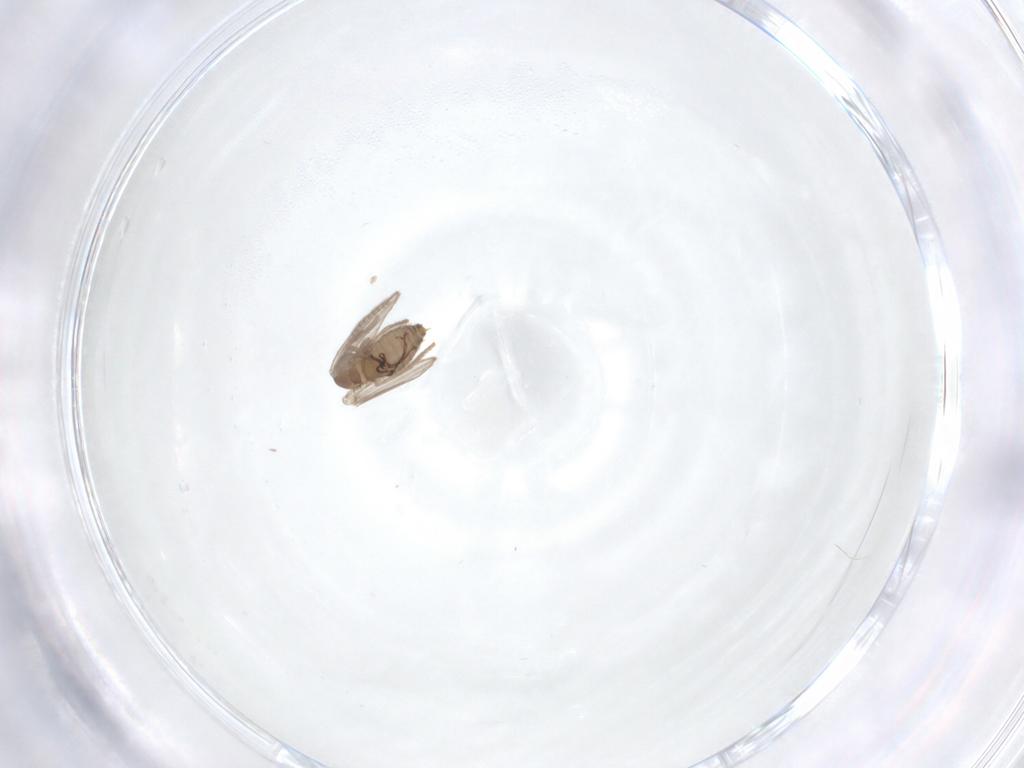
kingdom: Animalia
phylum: Arthropoda
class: Insecta
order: Diptera
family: Psychodidae
